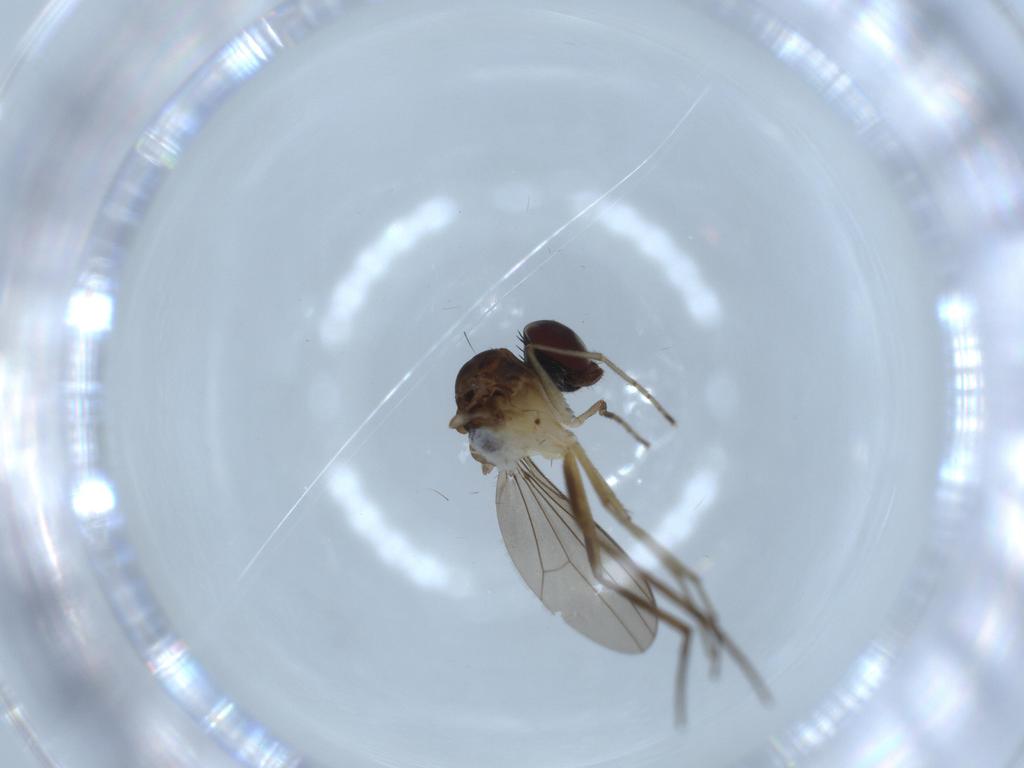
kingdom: Animalia
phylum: Arthropoda
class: Insecta
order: Diptera
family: Dolichopodidae
